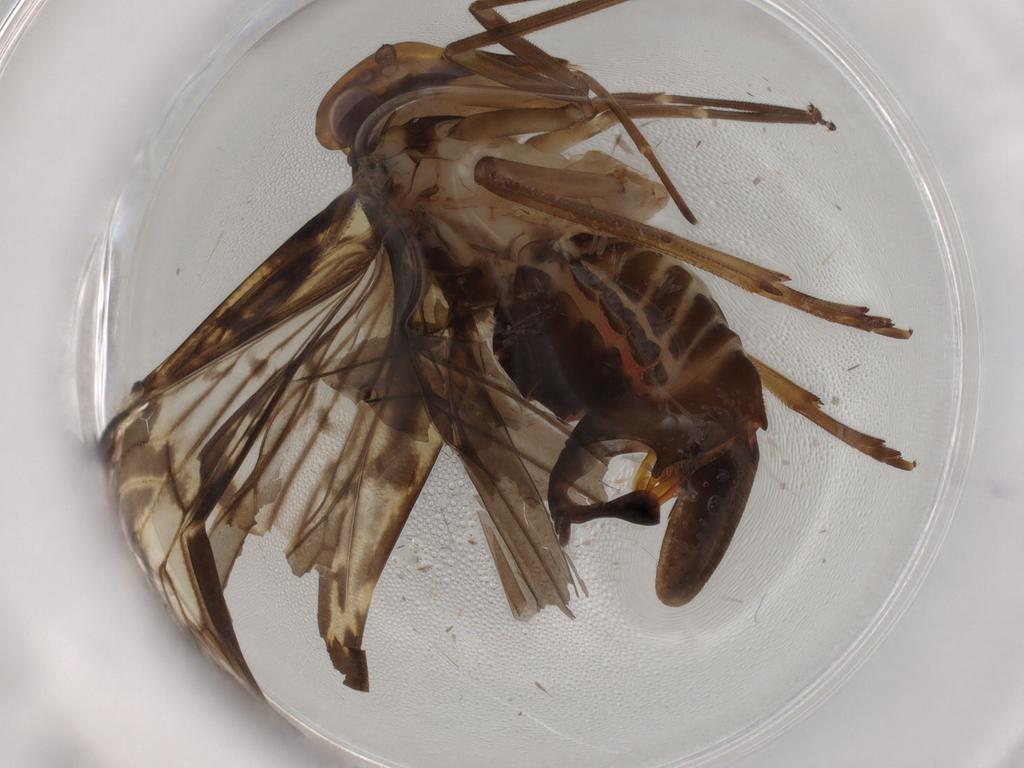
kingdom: Animalia
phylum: Arthropoda
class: Insecta
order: Hemiptera
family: Cixiidae
